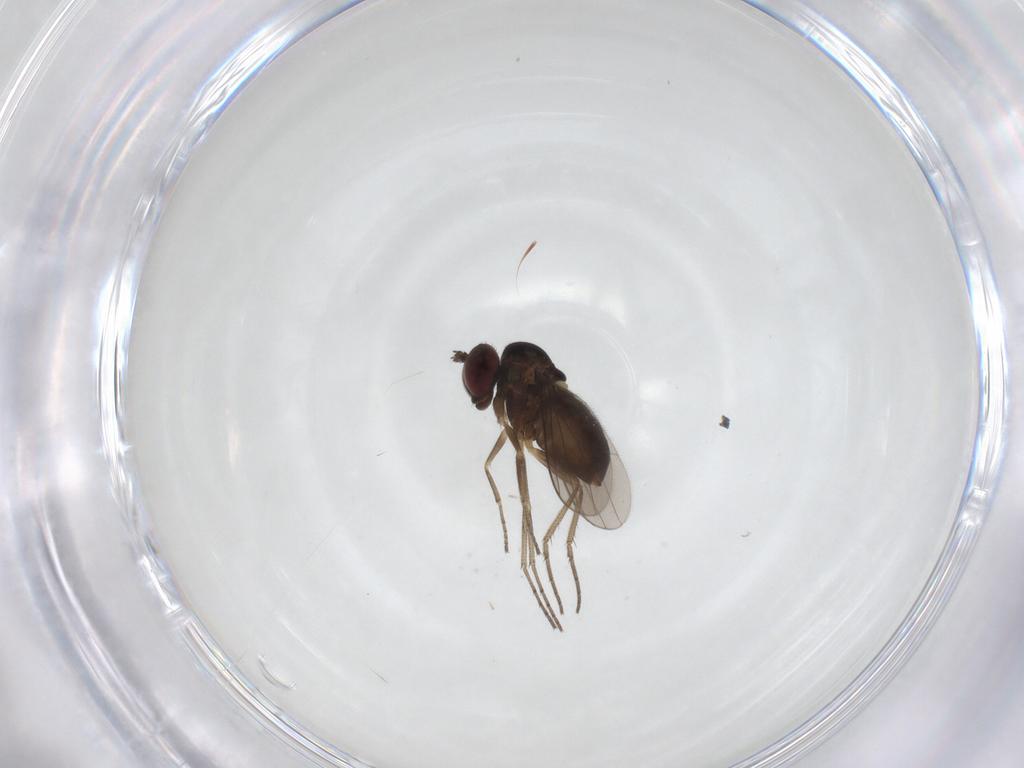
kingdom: Animalia
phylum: Arthropoda
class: Insecta
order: Diptera
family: Dolichopodidae
